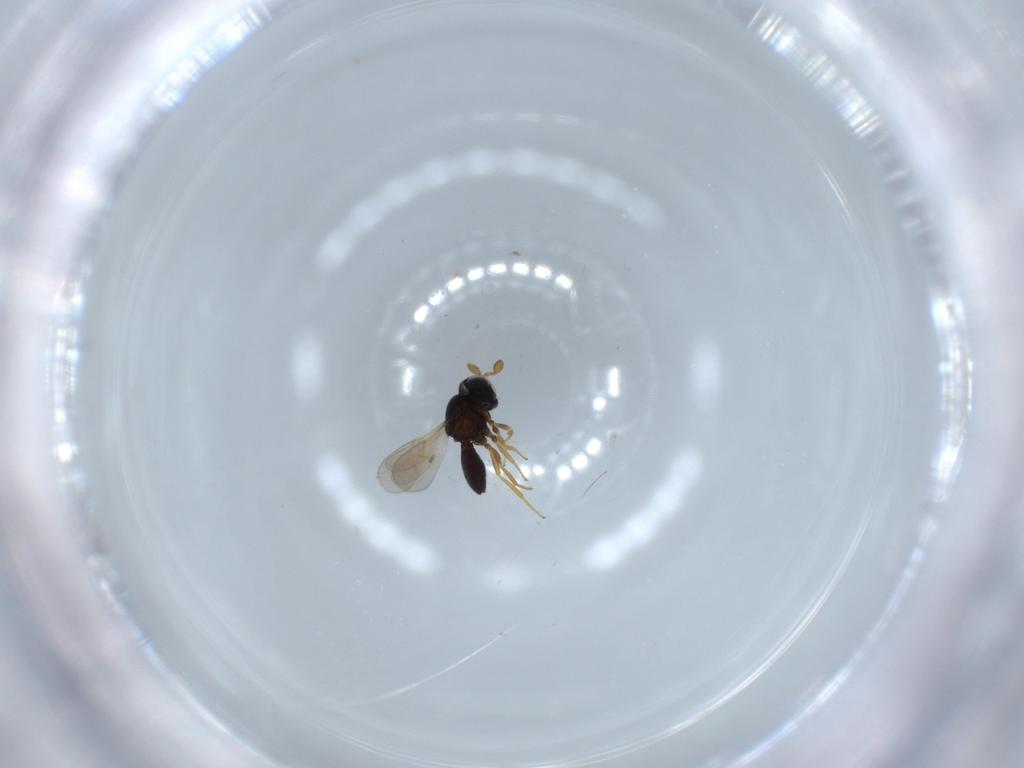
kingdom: Animalia
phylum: Arthropoda
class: Insecta
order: Hymenoptera
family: Scelionidae
